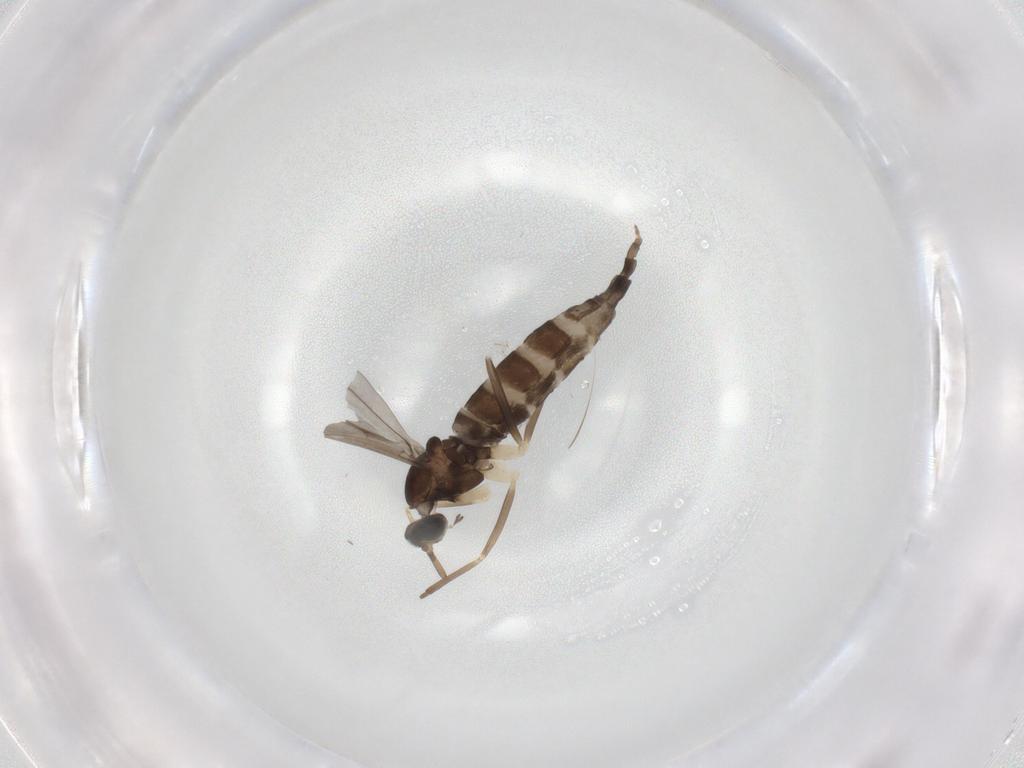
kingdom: Animalia
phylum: Arthropoda
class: Insecta
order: Diptera
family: Cecidomyiidae
